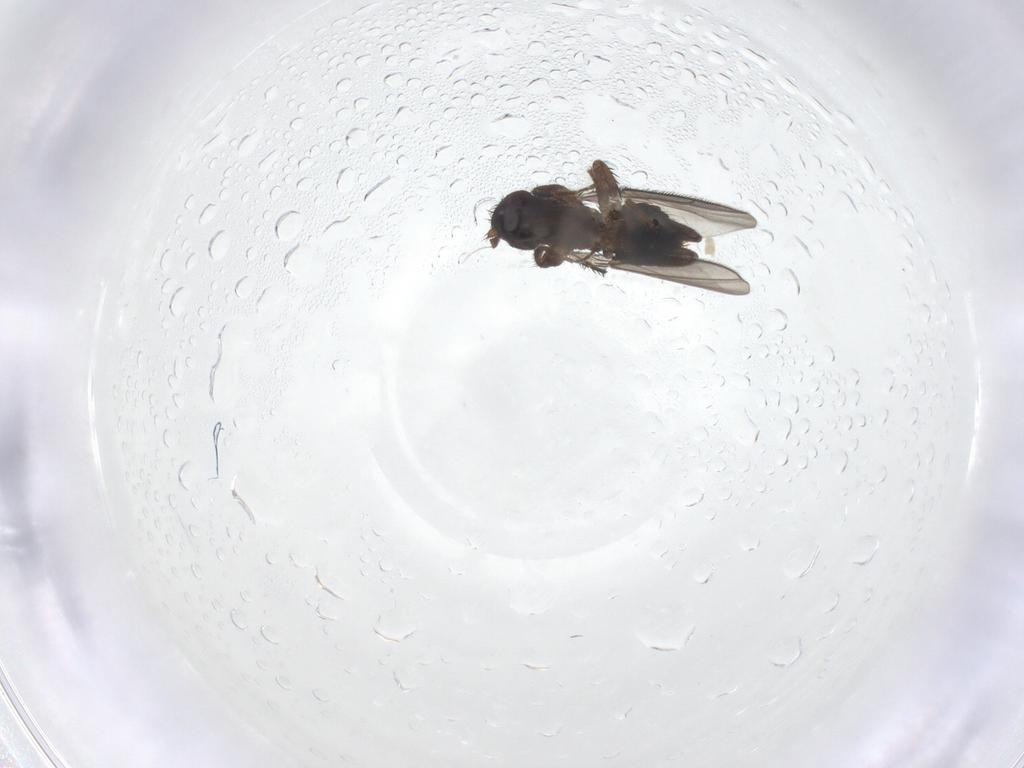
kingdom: Animalia
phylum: Arthropoda
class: Insecta
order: Diptera
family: Sphaeroceridae
